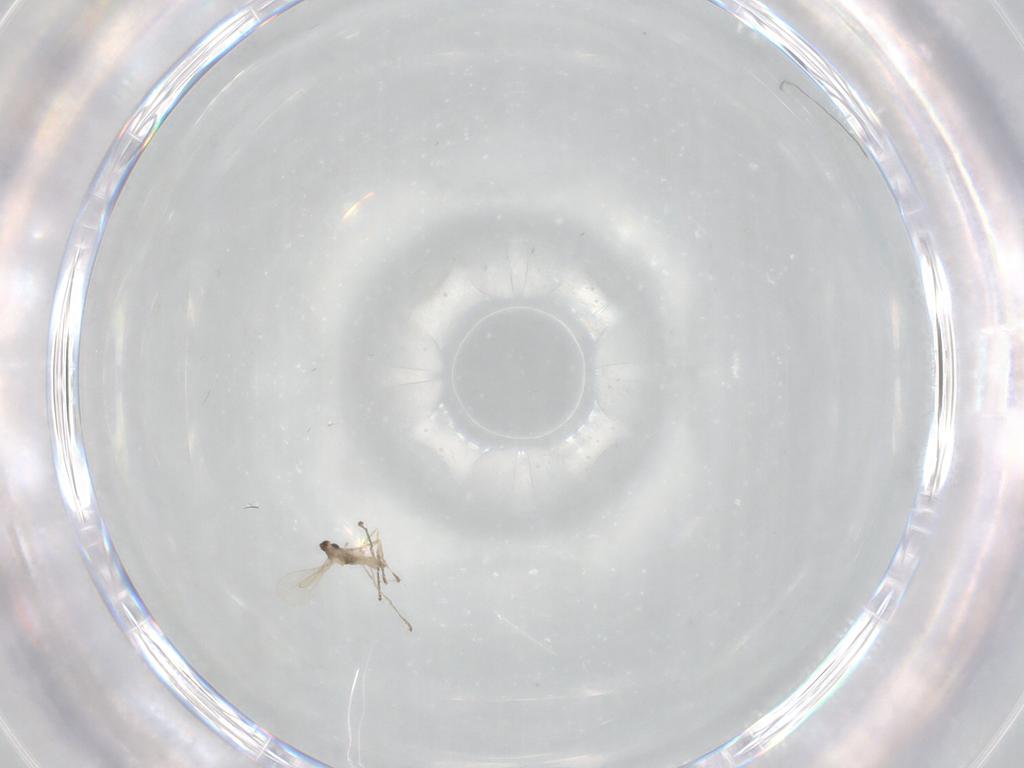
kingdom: Animalia
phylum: Arthropoda
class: Insecta
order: Diptera
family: Cecidomyiidae
